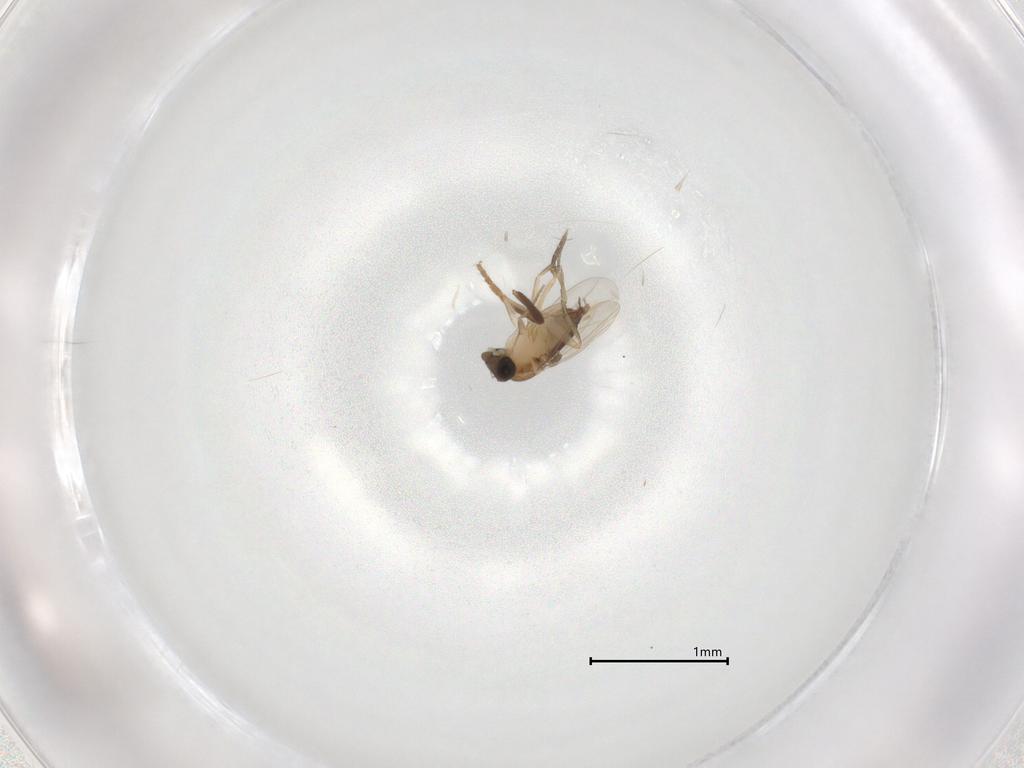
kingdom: Animalia
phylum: Arthropoda
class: Insecta
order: Diptera
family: Phoridae
